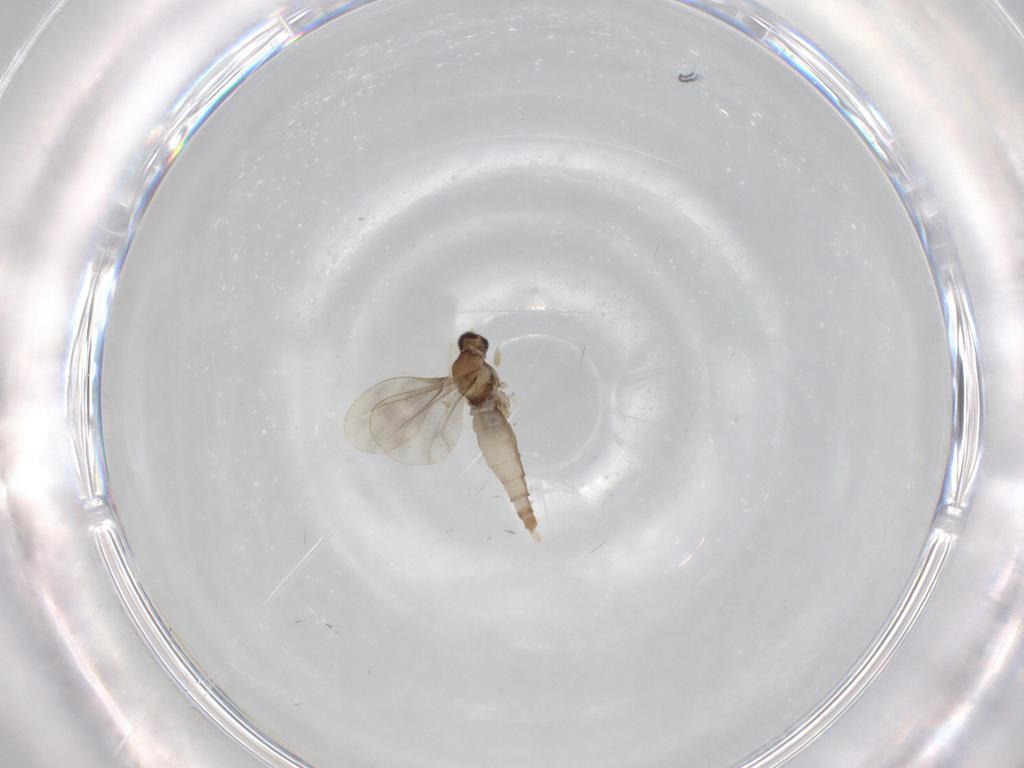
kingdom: Animalia
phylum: Arthropoda
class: Insecta
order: Diptera
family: Cecidomyiidae
